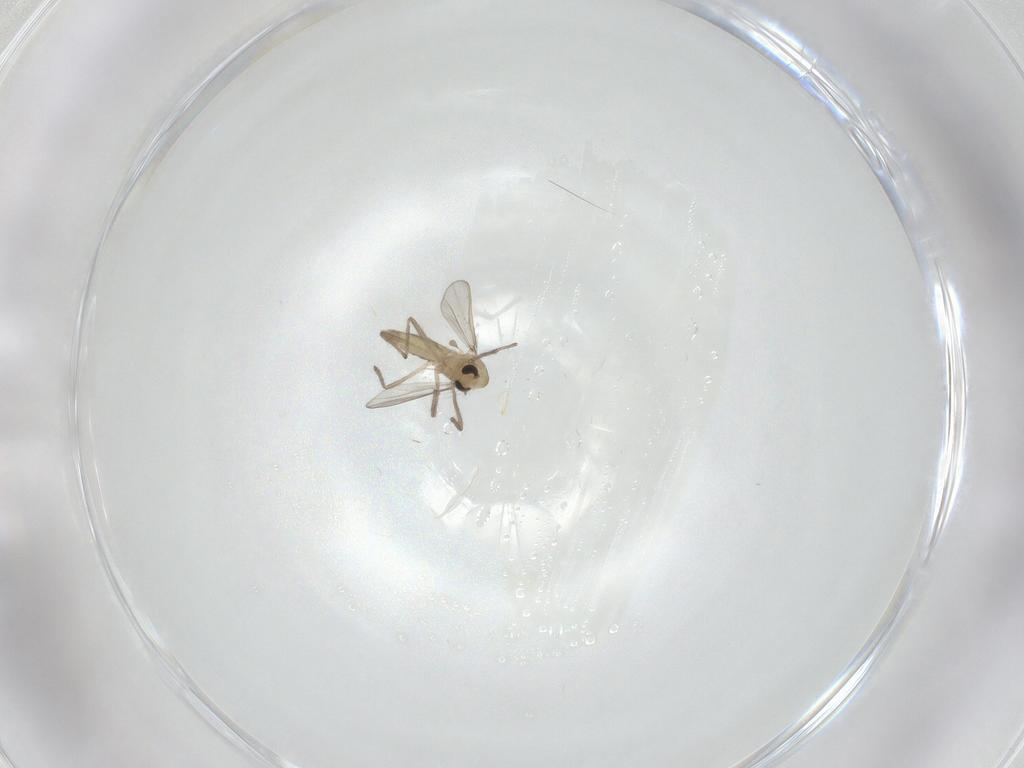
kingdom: Animalia
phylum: Arthropoda
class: Insecta
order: Diptera
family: Chironomidae
